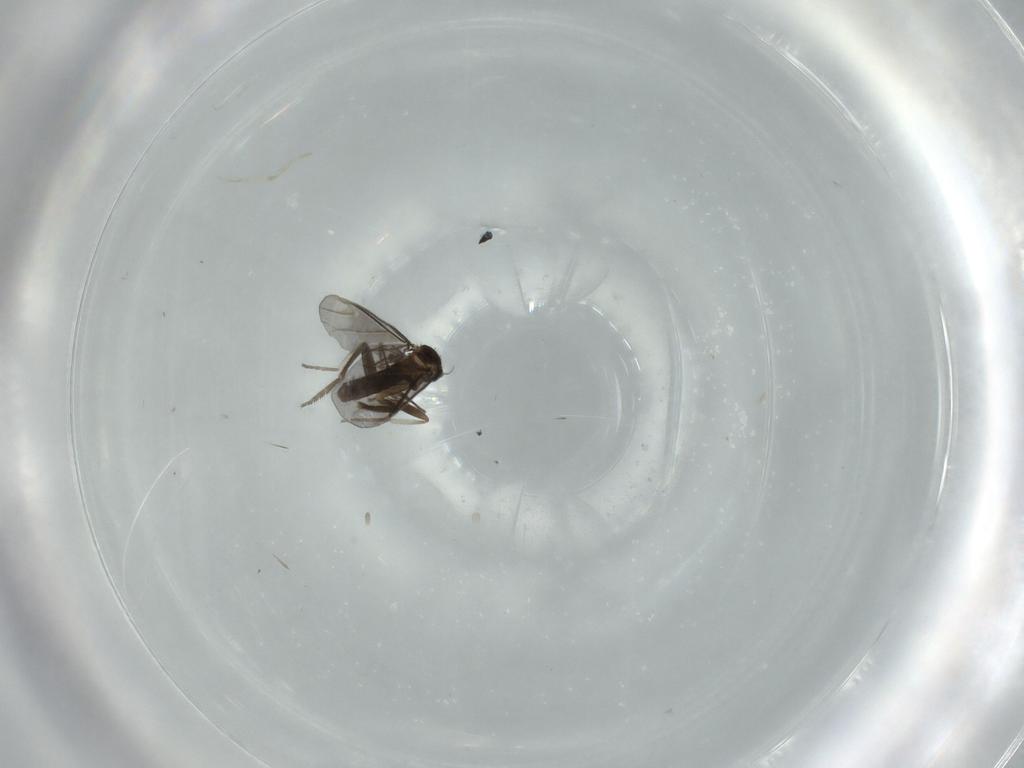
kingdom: Animalia
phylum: Arthropoda
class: Insecta
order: Diptera
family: Phoridae
